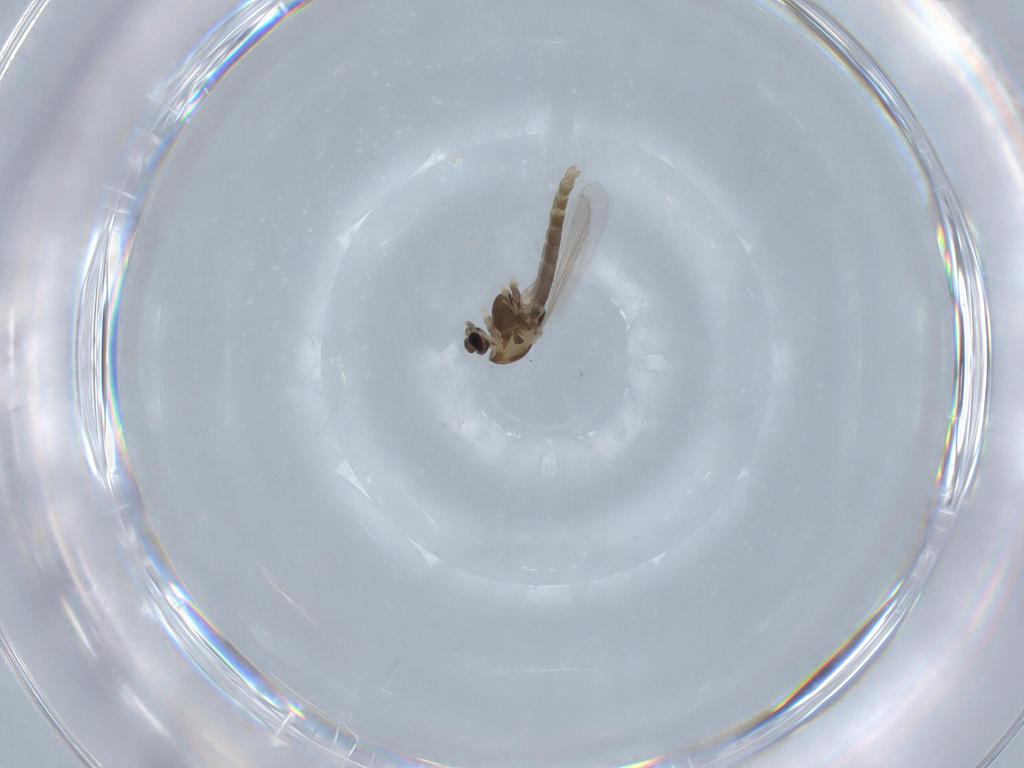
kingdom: Animalia
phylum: Arthropoda
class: Insecta
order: Diptera
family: Chironomidae
